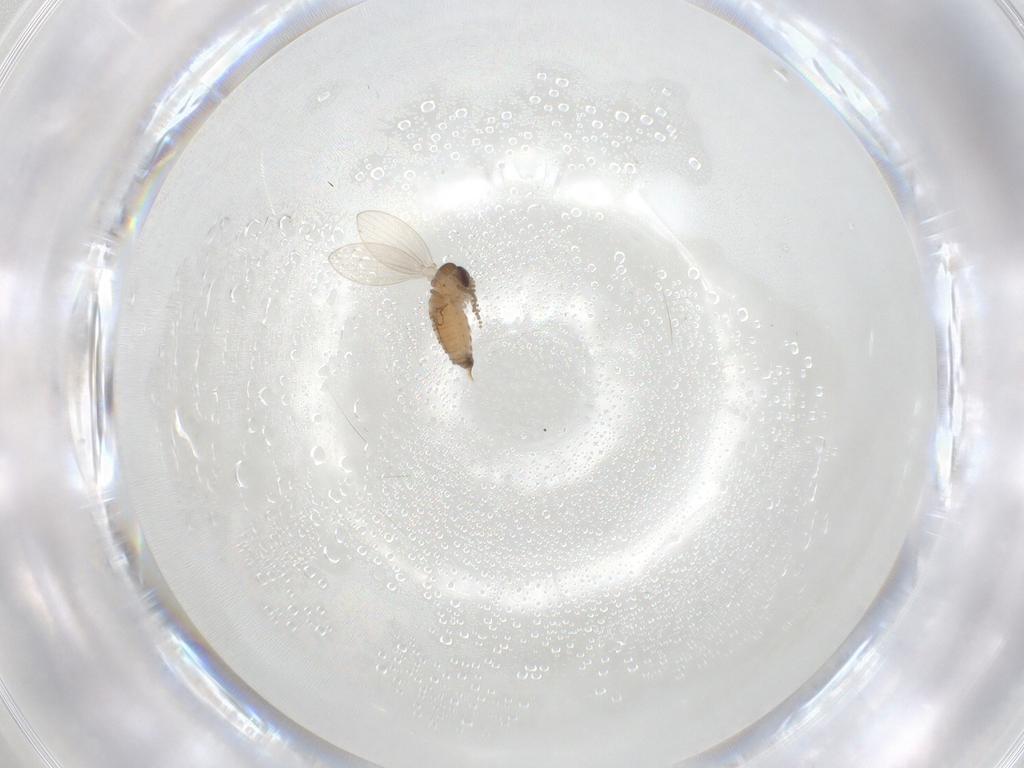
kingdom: Animalia
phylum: Arthropoda
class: Insecta
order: Diptera
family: Psychodidae
